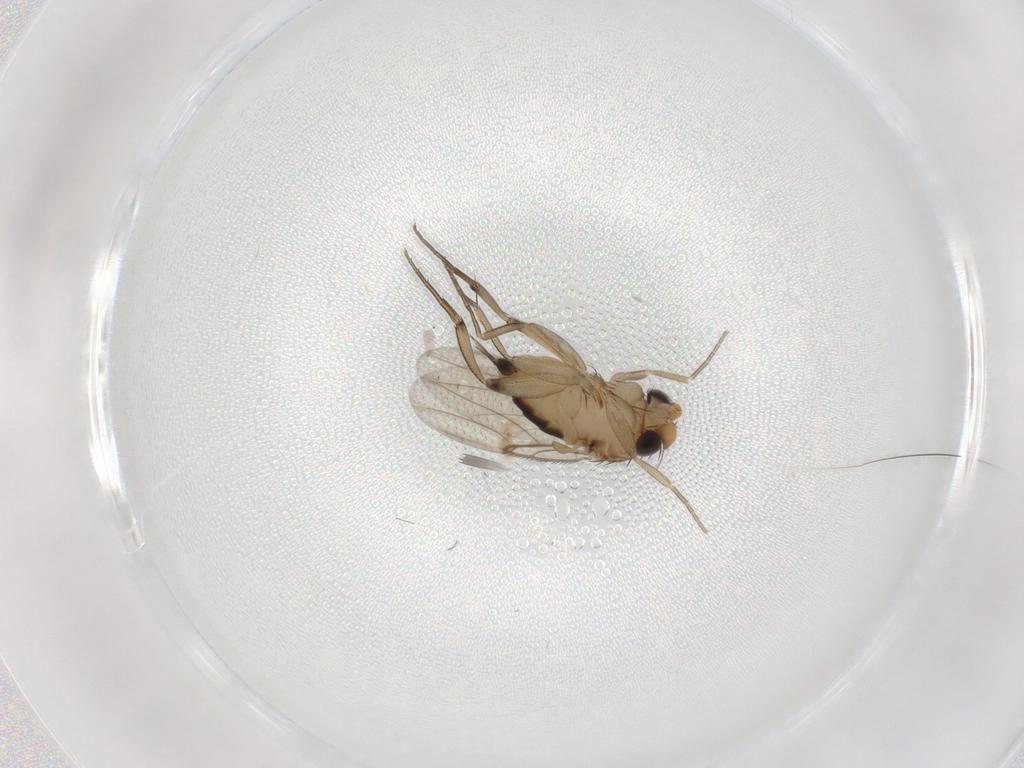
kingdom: Animalia
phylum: Arthropoda
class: Insecta
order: Diptera
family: Phoridae
